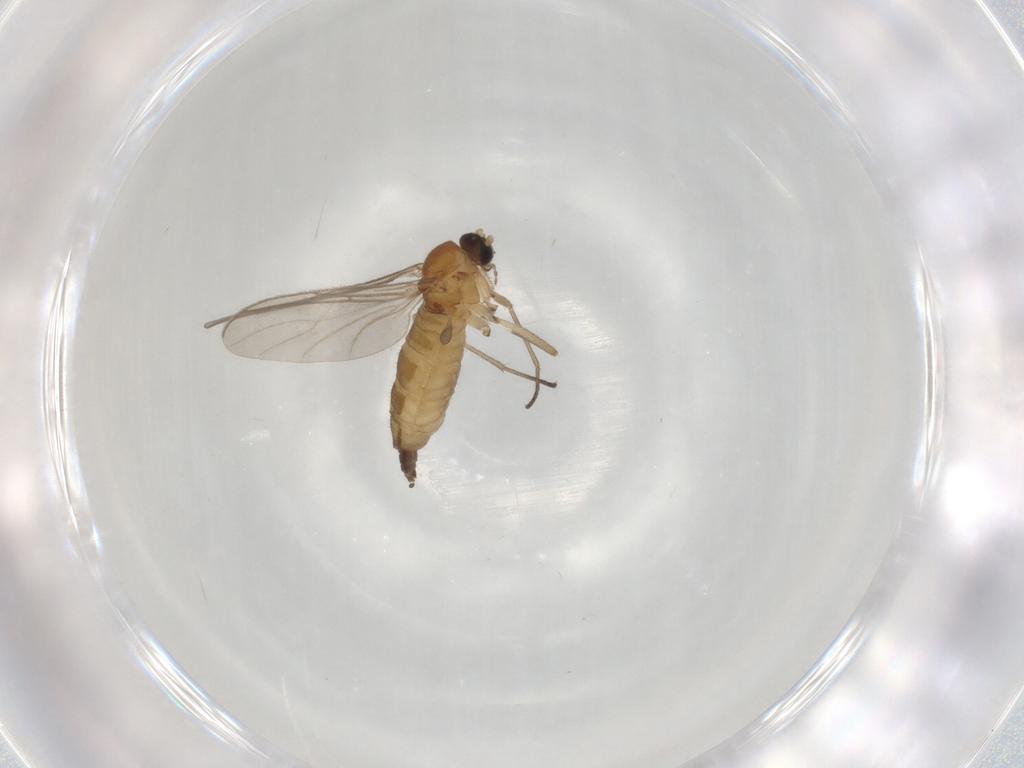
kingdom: Animalia
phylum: Arthropoda
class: Insecta
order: Diptera
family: Sciaridae
